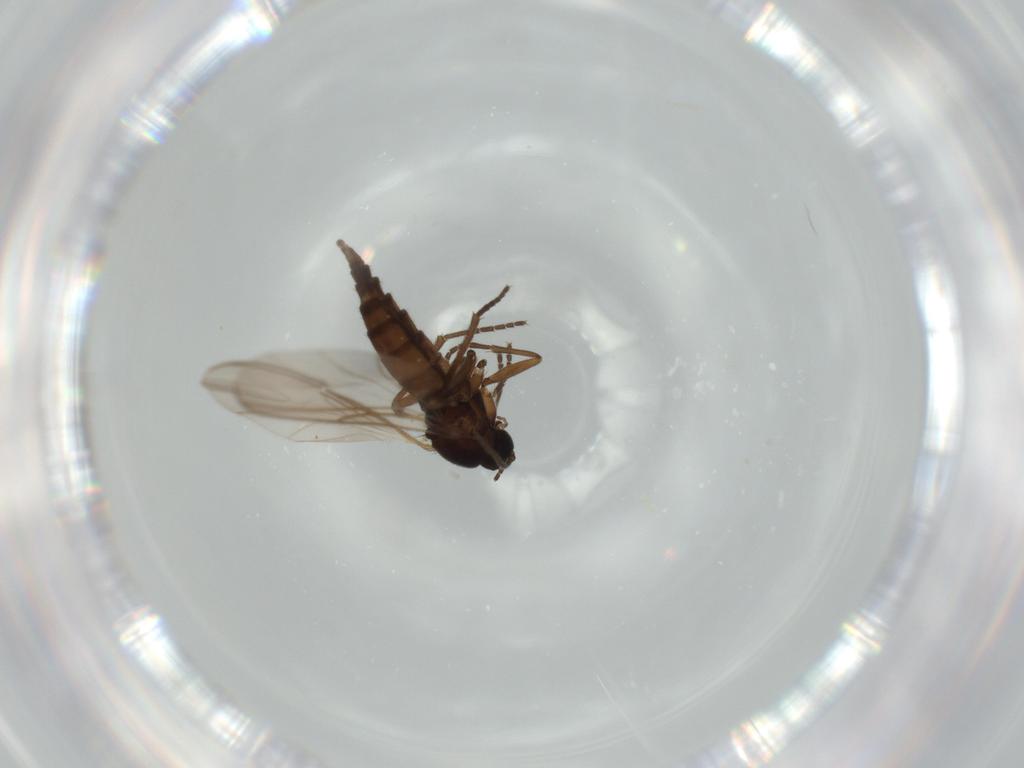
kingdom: Animalia
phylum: Arthropoda
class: Insecta
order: Diptera
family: Sciaridae
